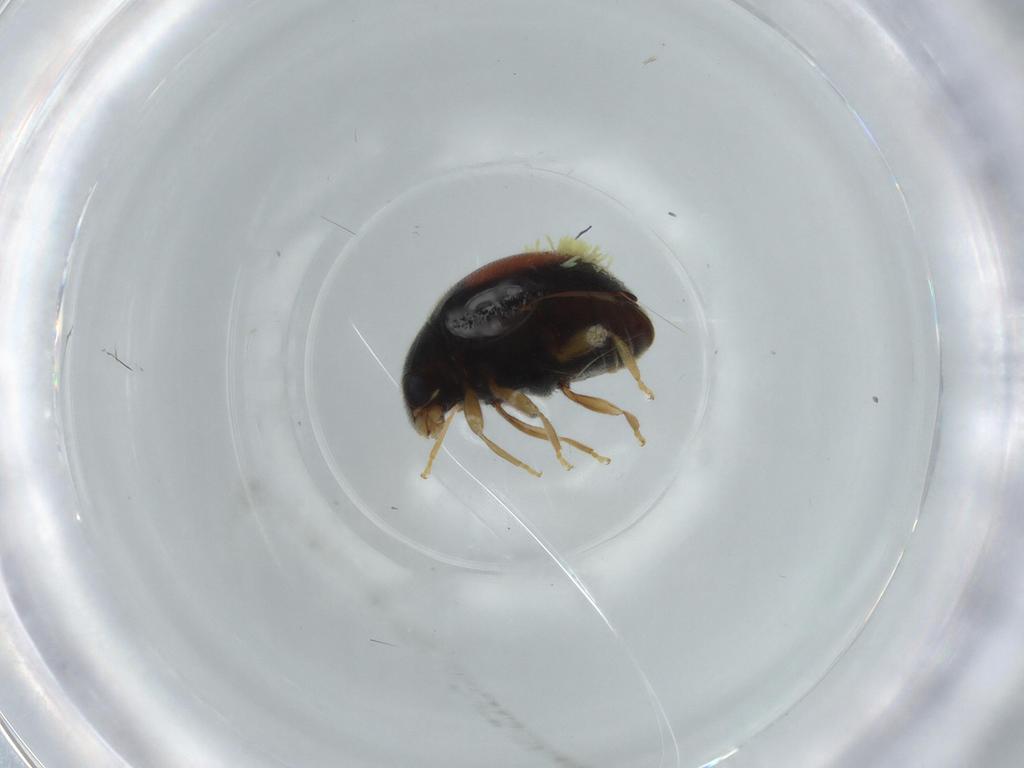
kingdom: Animalia
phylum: Arthropoda
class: Insecta
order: Coleoptera
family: Coccinellidae
